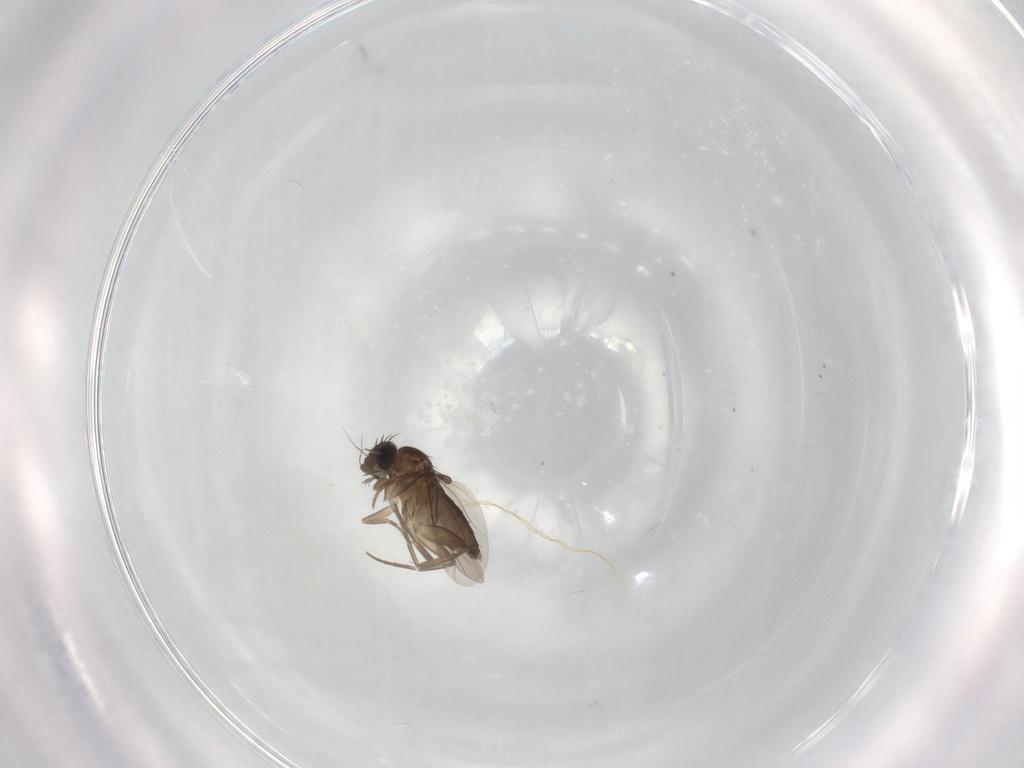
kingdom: Animalia
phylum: Arthropoda
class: Insecta
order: Diptera
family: Phoridae
